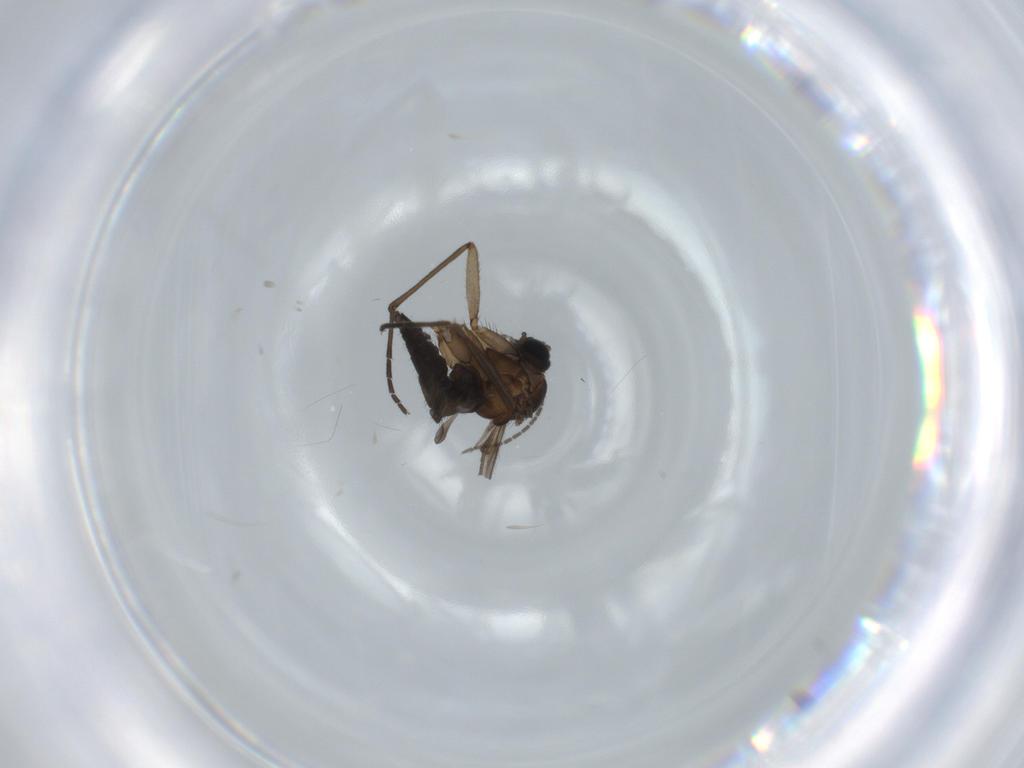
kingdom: Animalia
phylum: Arthropoda
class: Insecta
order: Diptera
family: Sciaridae
